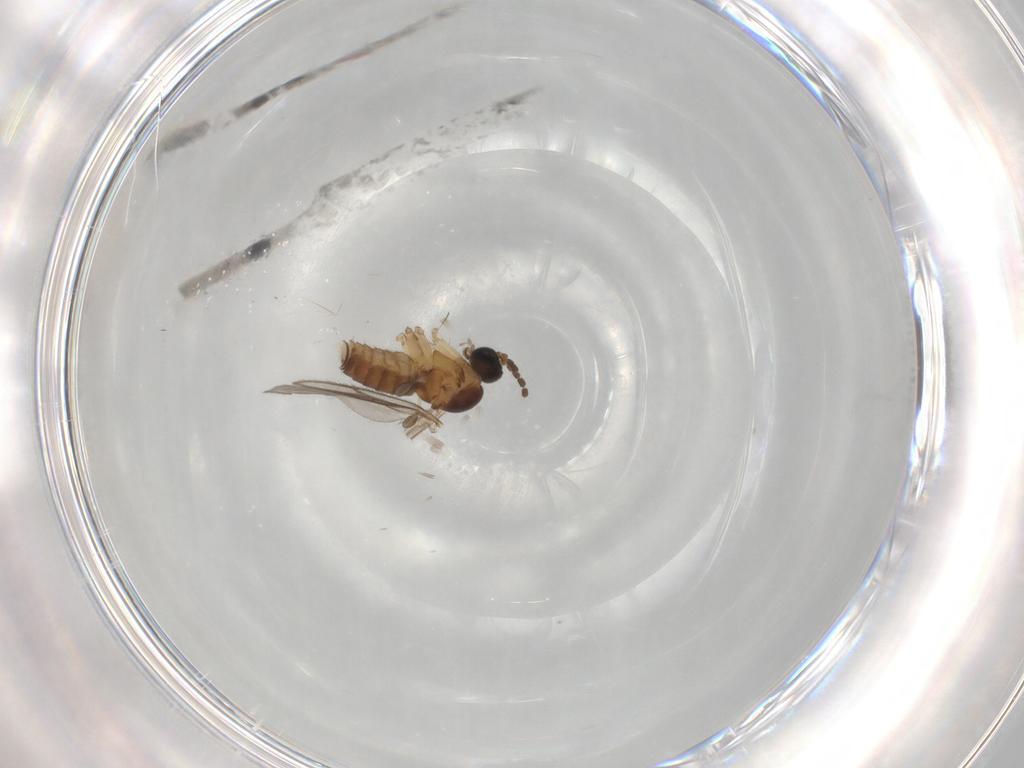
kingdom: Animalia
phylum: Arthropoda
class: Insecta
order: Diptera
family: Sciaridae
